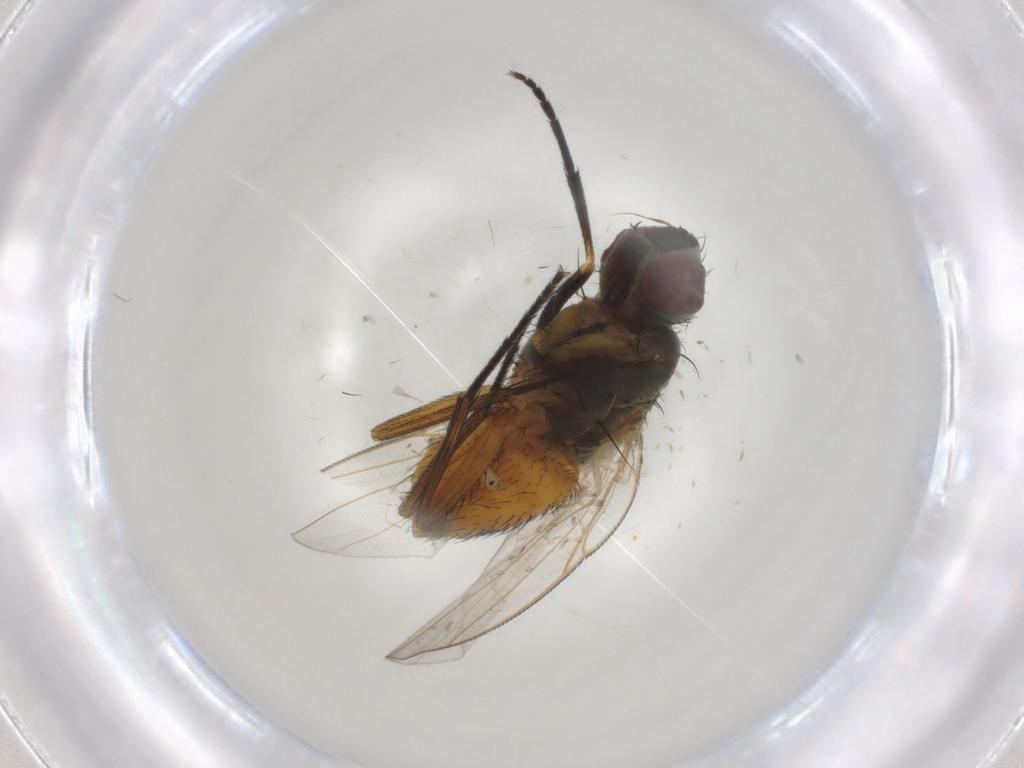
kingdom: Animalia
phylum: Arthropoda
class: Insecta
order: Diptera
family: Muscidae
